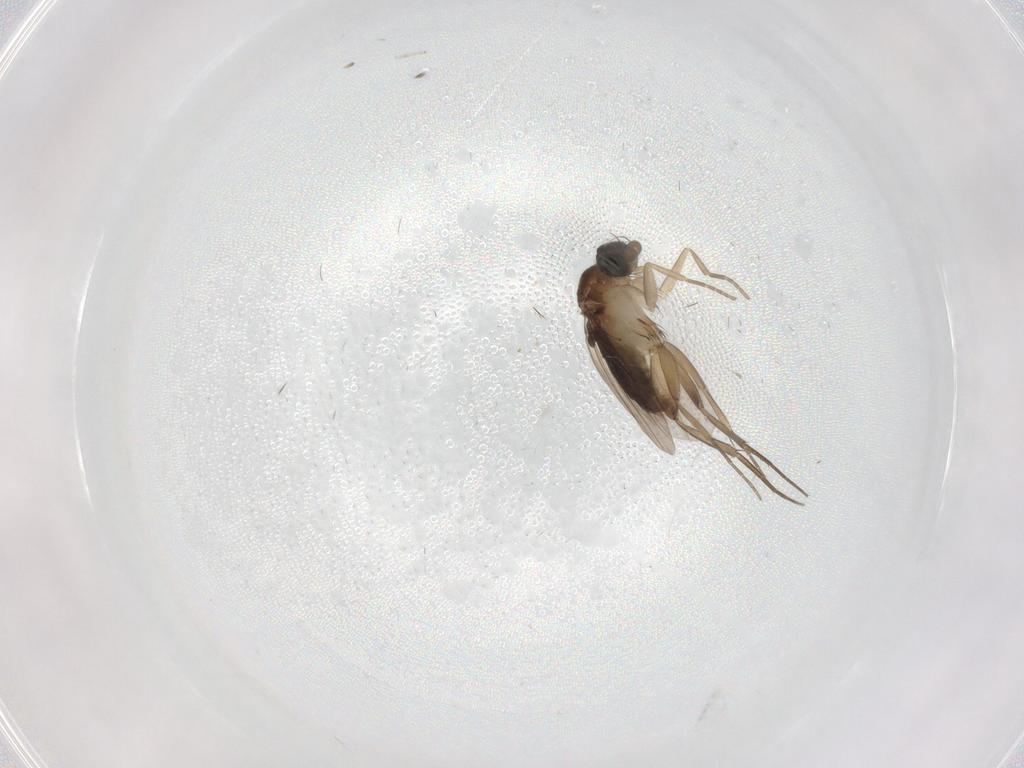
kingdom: Animalia
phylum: Arthropoda
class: Insecta
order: Diptera
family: Phoridae
